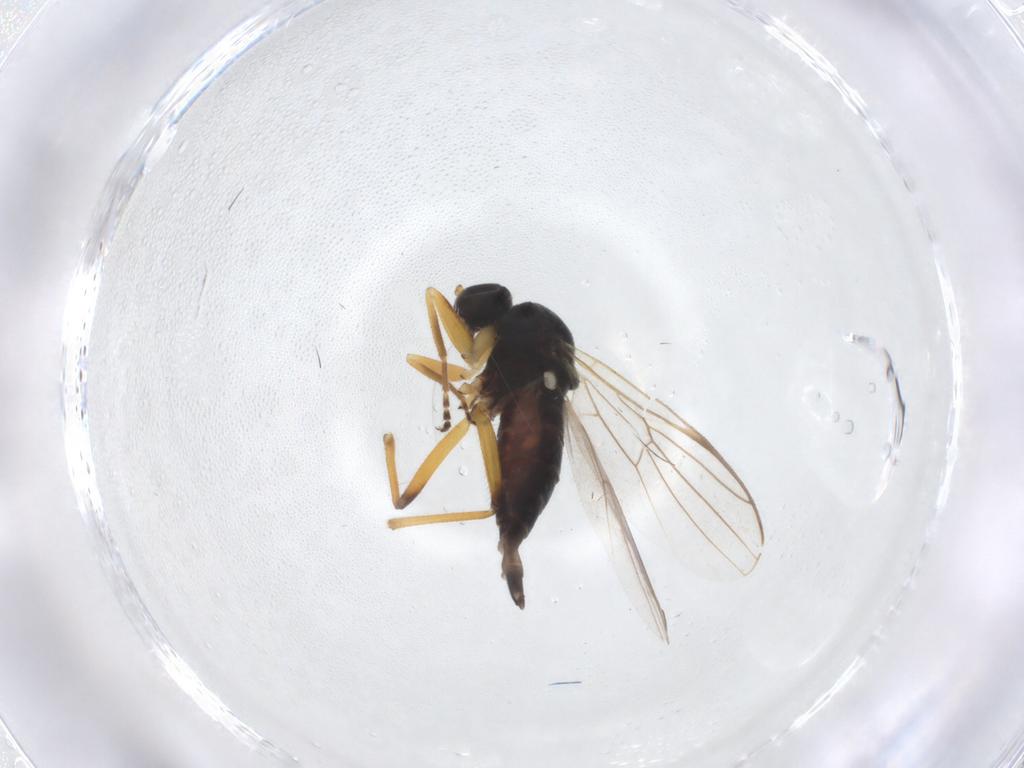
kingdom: Animalia
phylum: Arthropoda
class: Insecta
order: Diptera
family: Hybotidae
